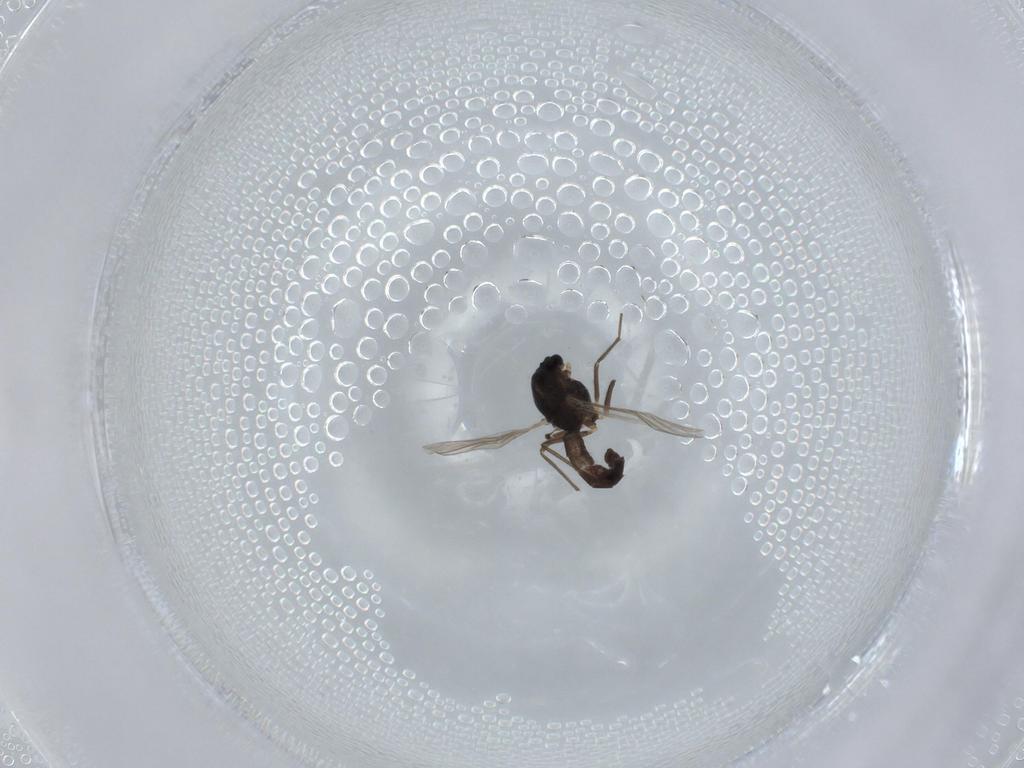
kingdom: Animalia
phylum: Arthropoda
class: Insecta
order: Diptera
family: Chironomidae
